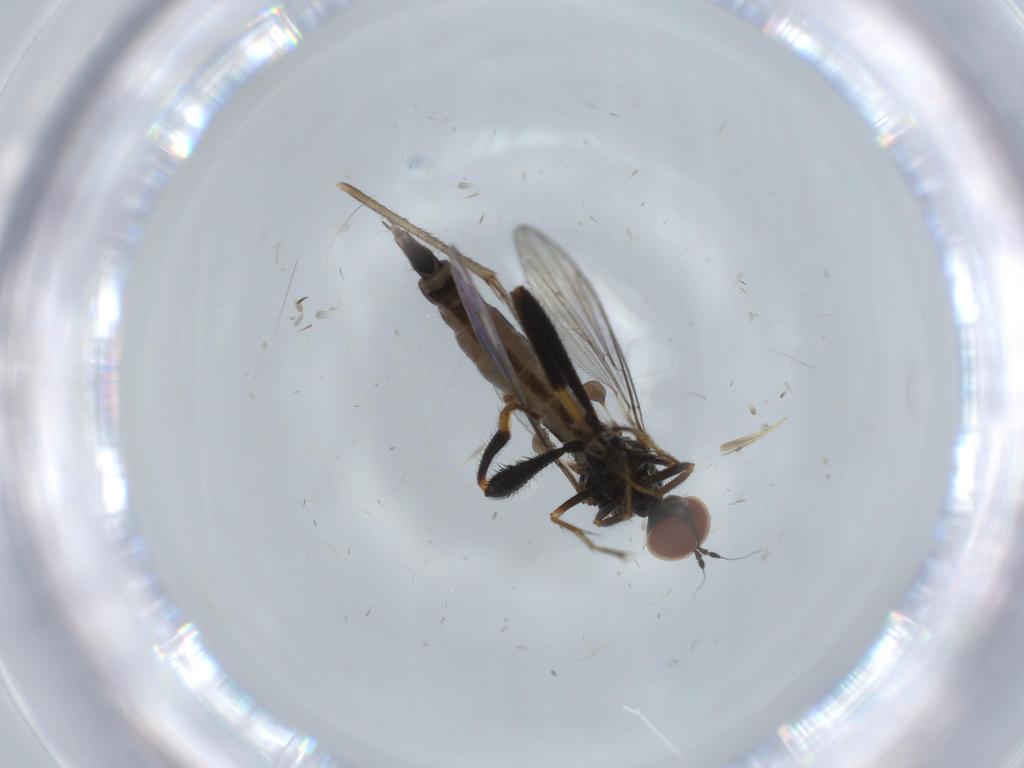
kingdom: Animalia
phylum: Arthropoda
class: Insecta
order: Diptera
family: Hybotidae
